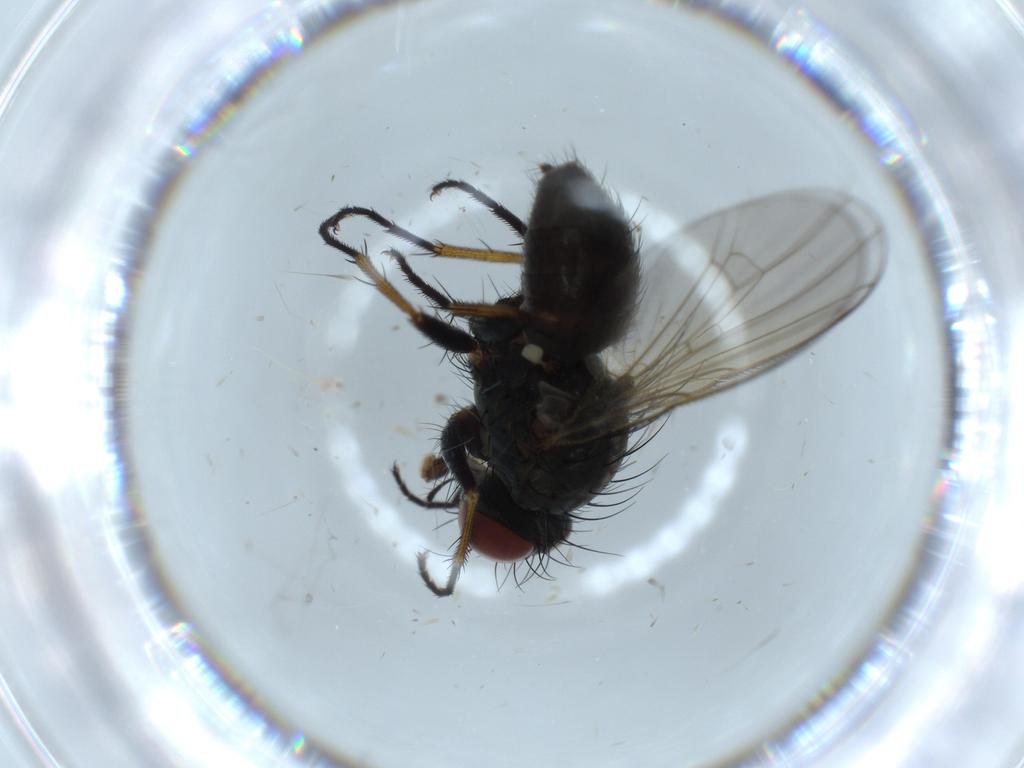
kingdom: Animalia
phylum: Arthropoda
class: Insecta
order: Diptera
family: Muscidae
